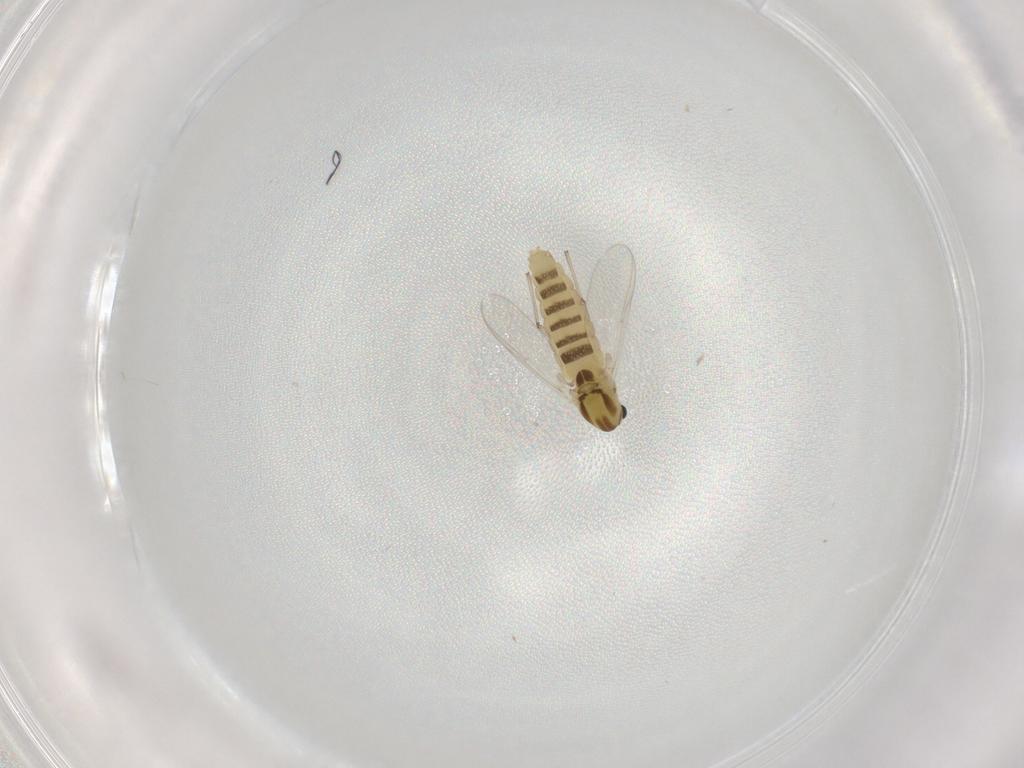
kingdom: Animalia
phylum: Arthropoda
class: Insecta
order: Diptera
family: Chironomidae
